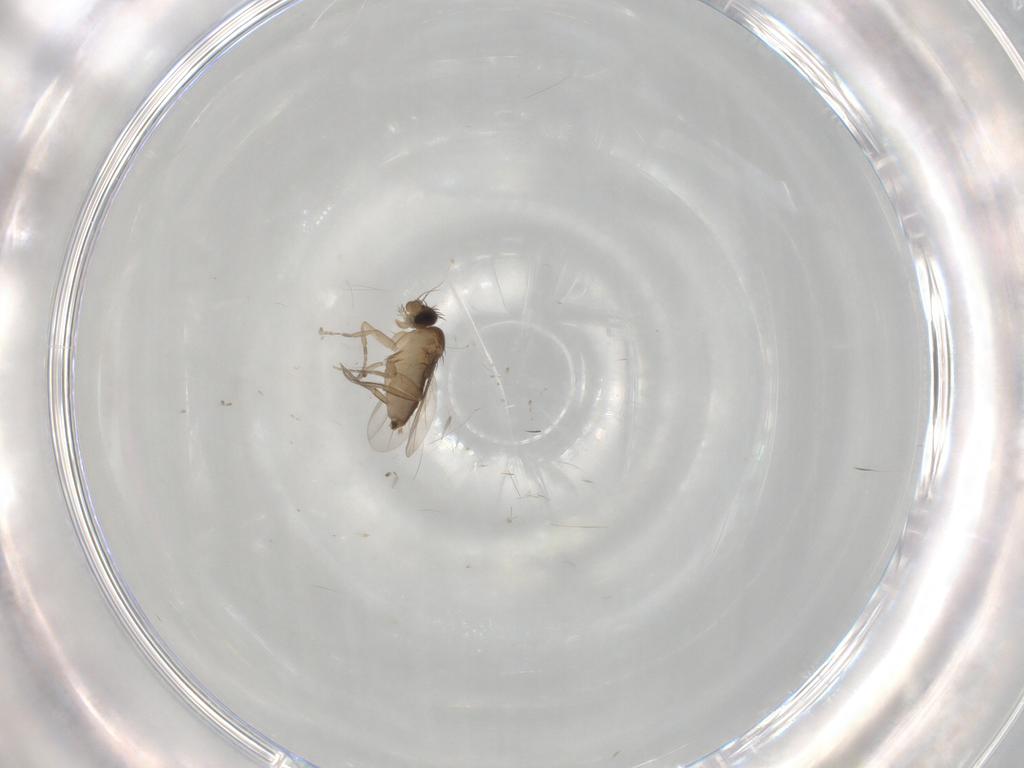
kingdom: Animalia
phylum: Arthropoda
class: Insecta
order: Diptera
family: Phoridae
